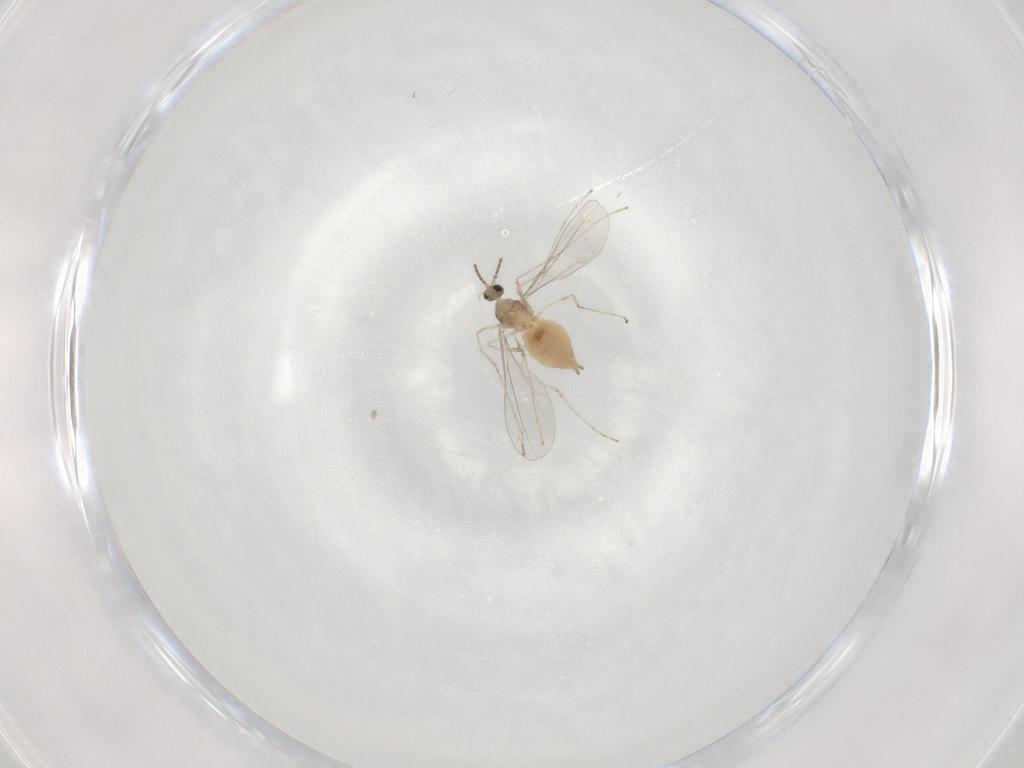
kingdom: Animalia
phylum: Arthropoda
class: Insecta
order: Diptera
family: Cecidomyiidae
